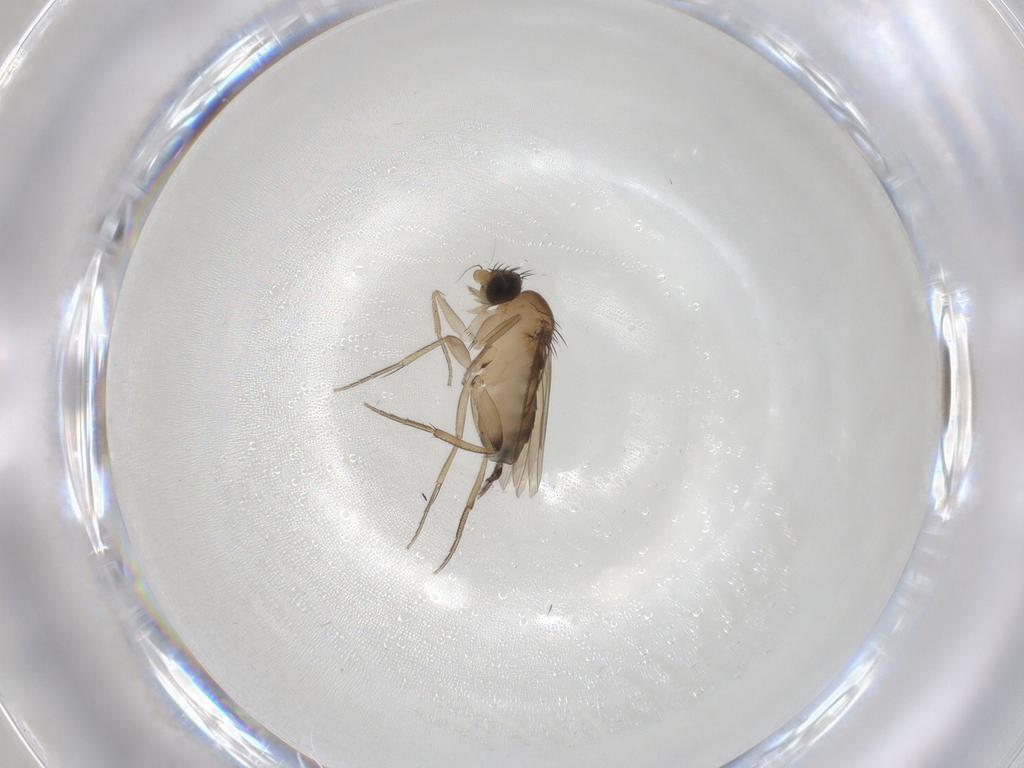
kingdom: Animalia
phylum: Arthropoda
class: Insecta
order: Diptera
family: Phoridae
